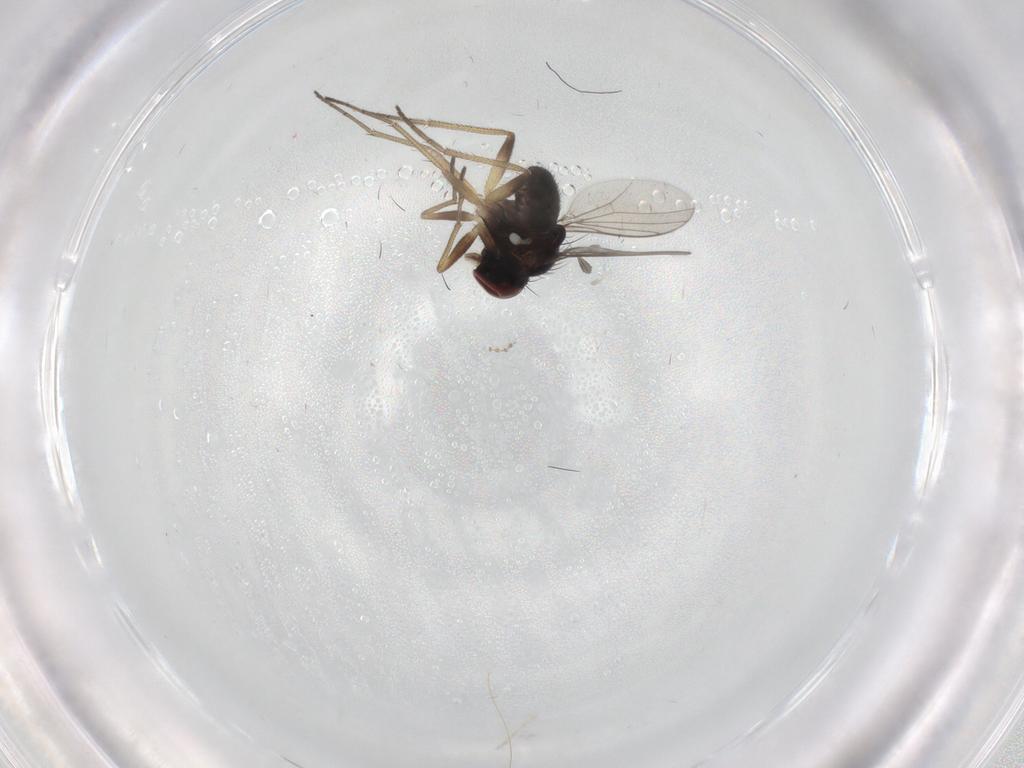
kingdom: Animalia
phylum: Arthropoda
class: Insecta
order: Diptera
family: Dolichopodidae
